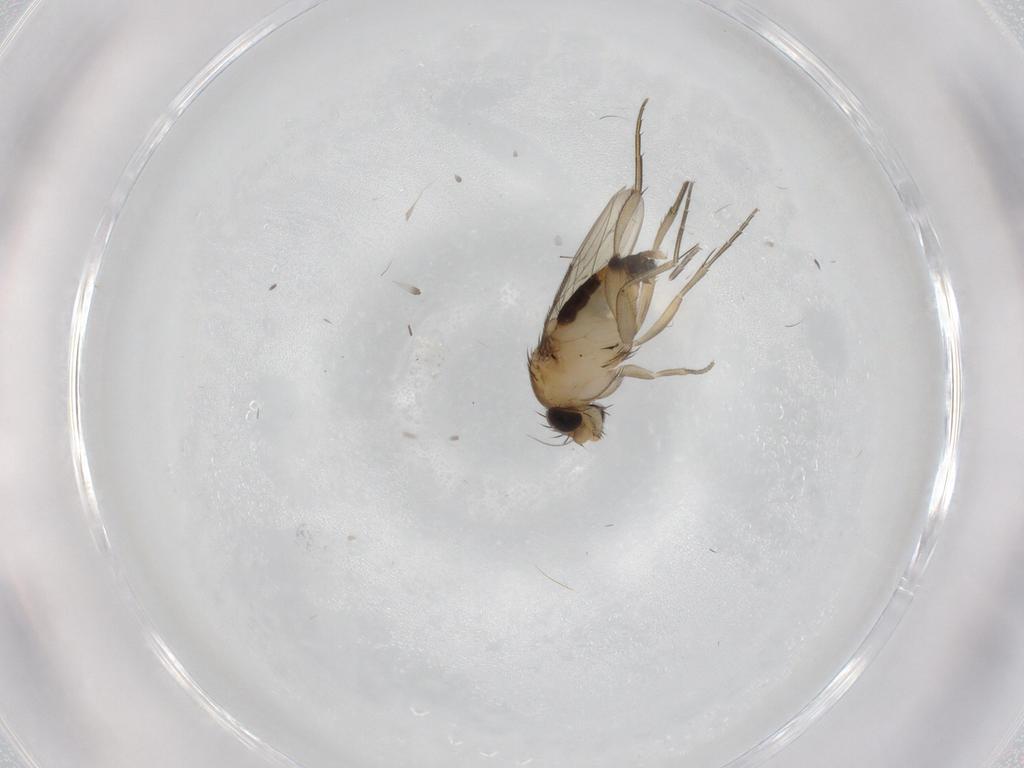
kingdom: Animalia
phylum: Arthropoda
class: Insecta
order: Diptera
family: Phoridae
